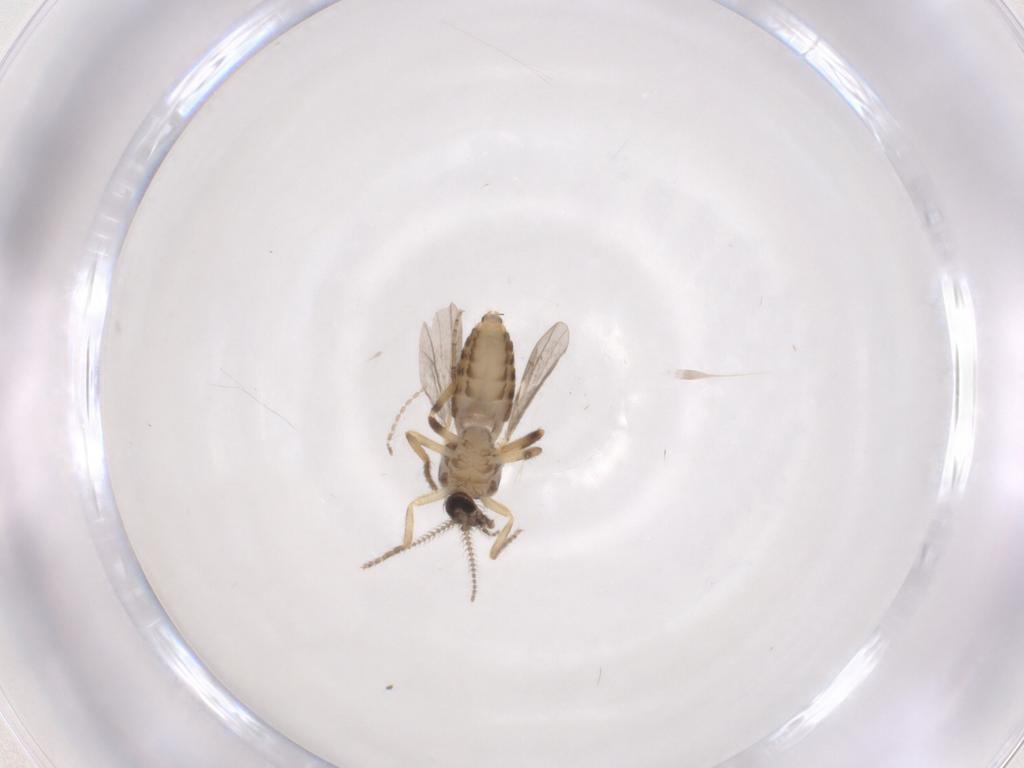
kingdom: Animalia
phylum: Arthropoda
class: Insecta
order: Diptera
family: Ceratopogonidae
